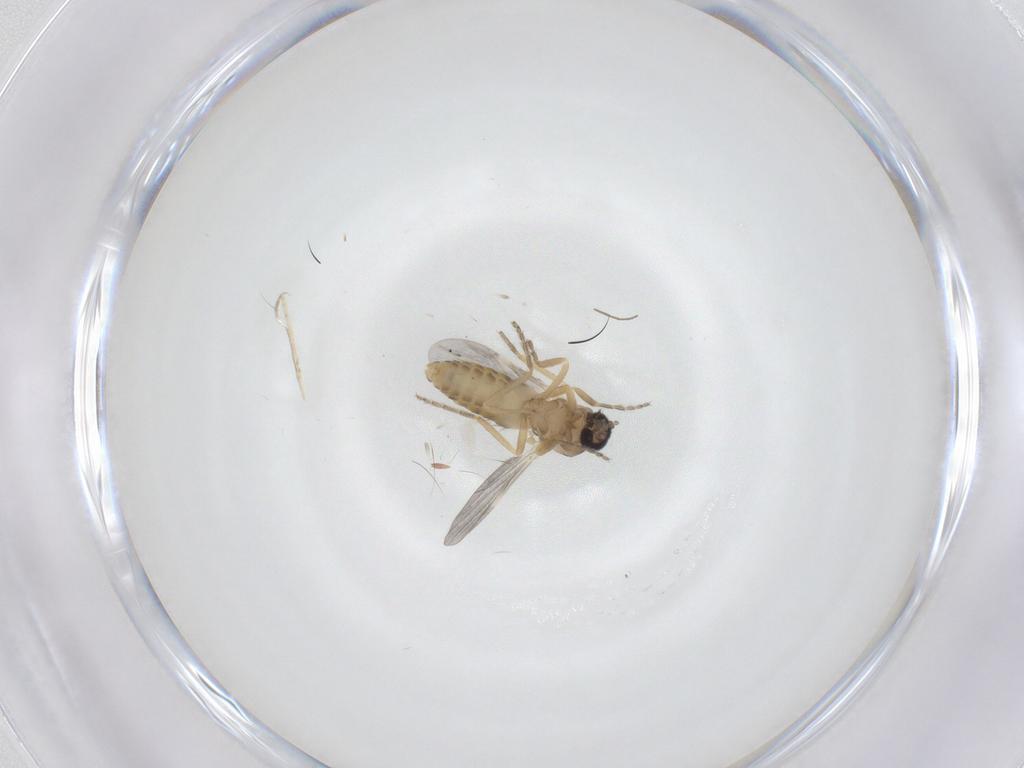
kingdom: Animalia
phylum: Arthropoda
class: Insecta
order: Diptera
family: Ceratopogonidae
